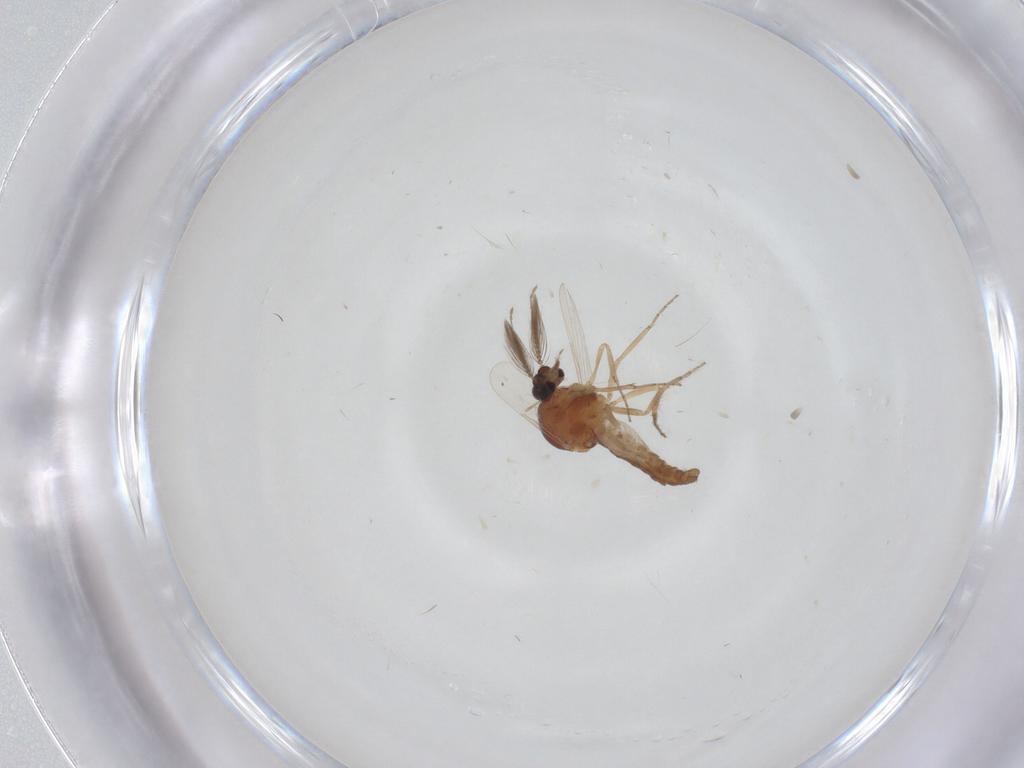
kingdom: Animalia
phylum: Arthropoda
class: Insecta
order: Diptera
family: Ceratopogonidae
